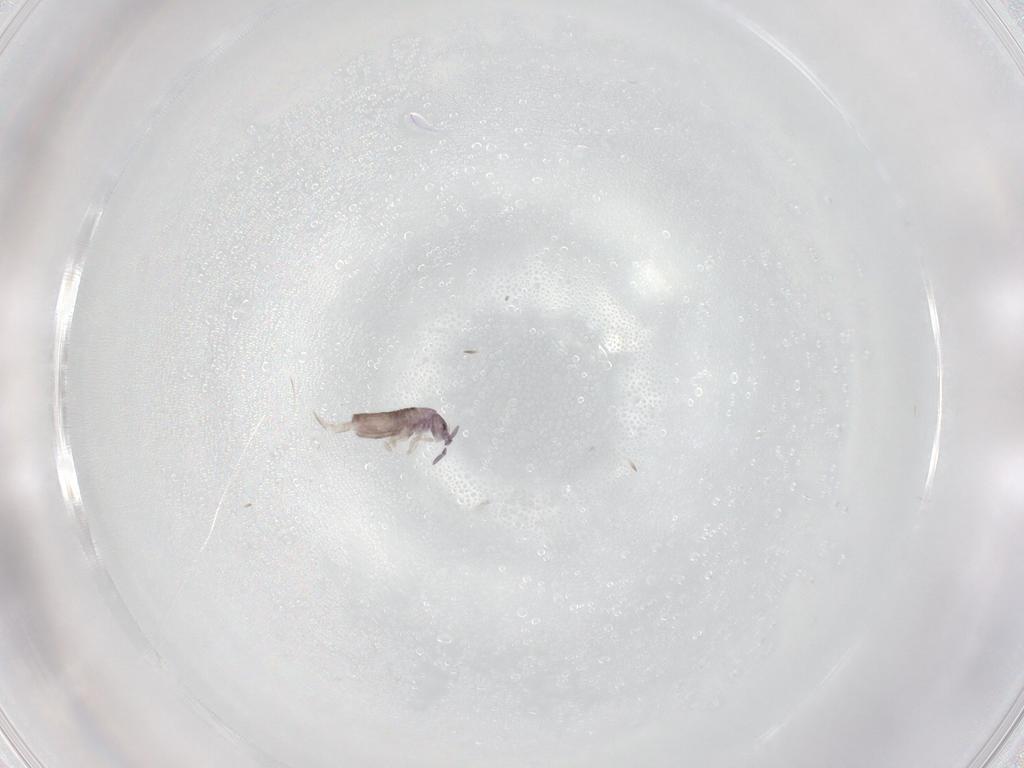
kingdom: Animalia
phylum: Arthropoda
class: Collembola
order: Entomobryomorpha
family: Entomobryidae
